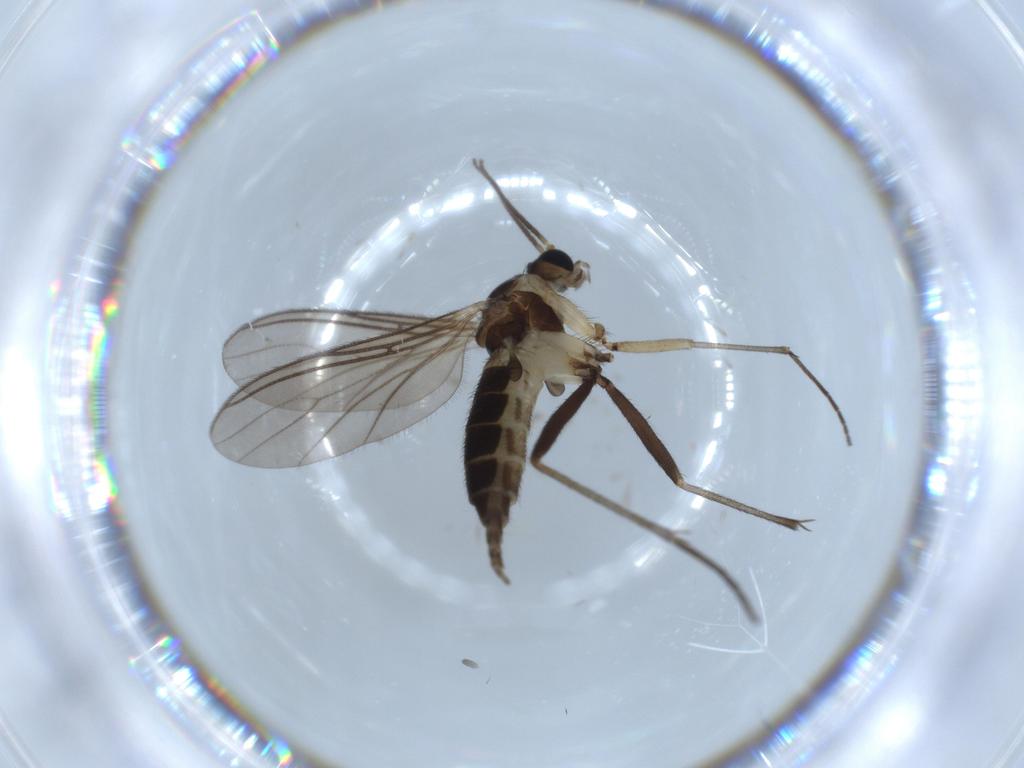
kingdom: Animalia
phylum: Arthropoda
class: Insecta
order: Diptera
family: Sciaridae
